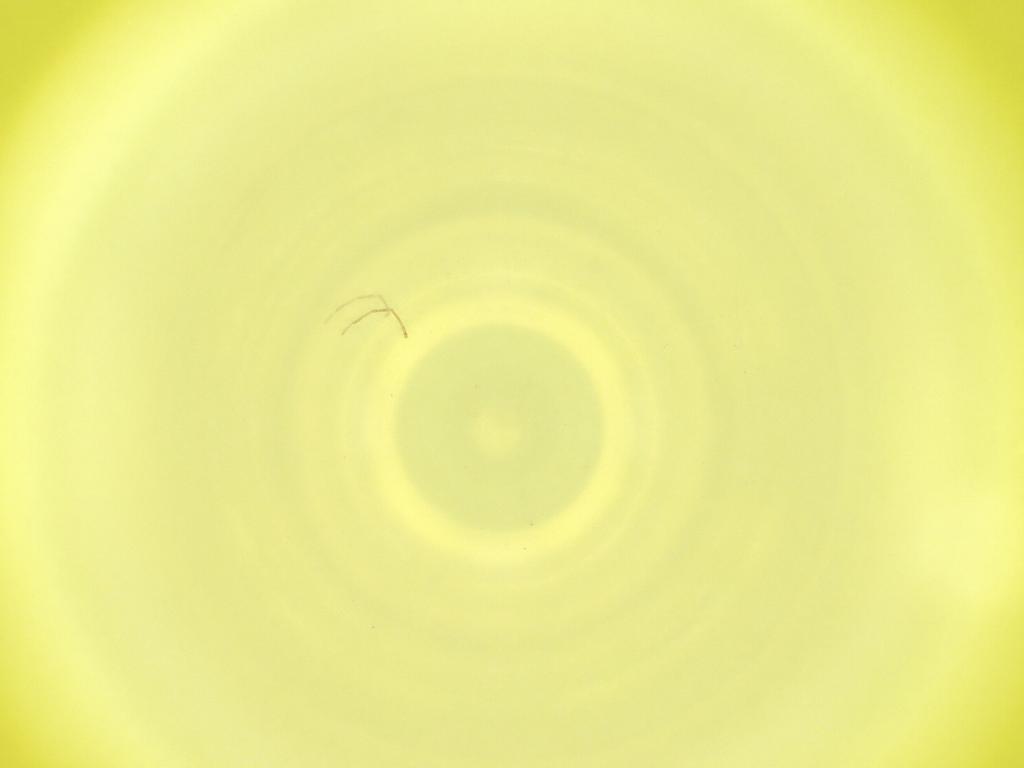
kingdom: Animalia
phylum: Arthropoda
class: Insecta
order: Diptera
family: Cecidomyiidae
